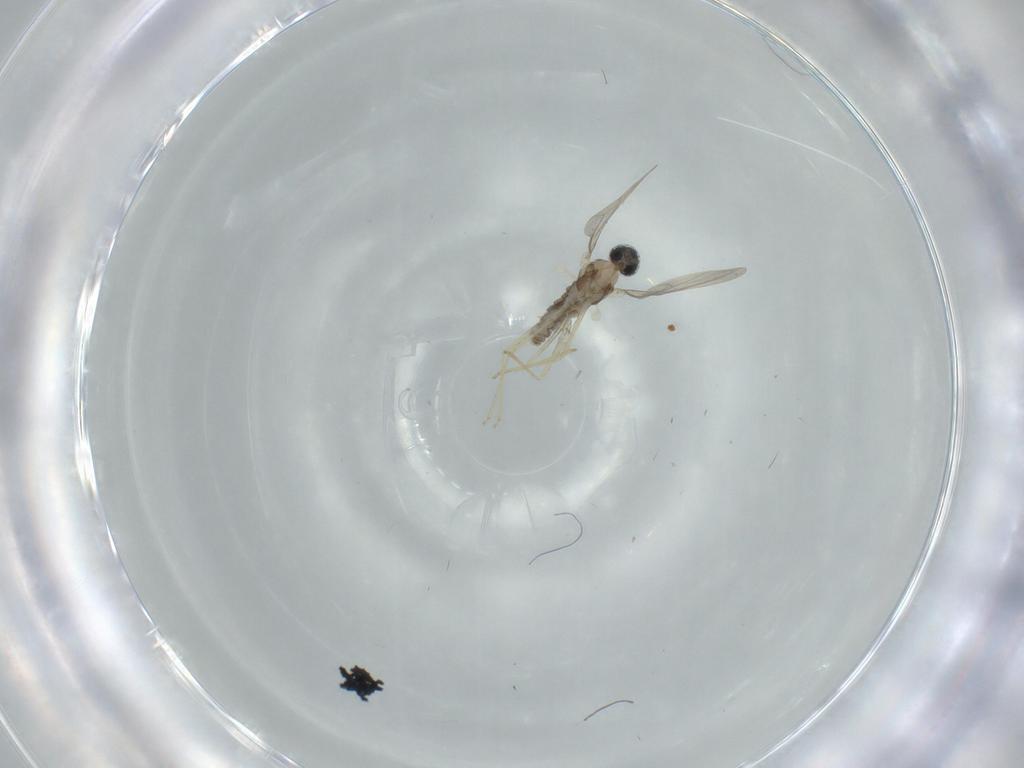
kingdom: Animalia
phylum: Arthropoda
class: Insecta
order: Diptera
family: Cecidomyiidae
